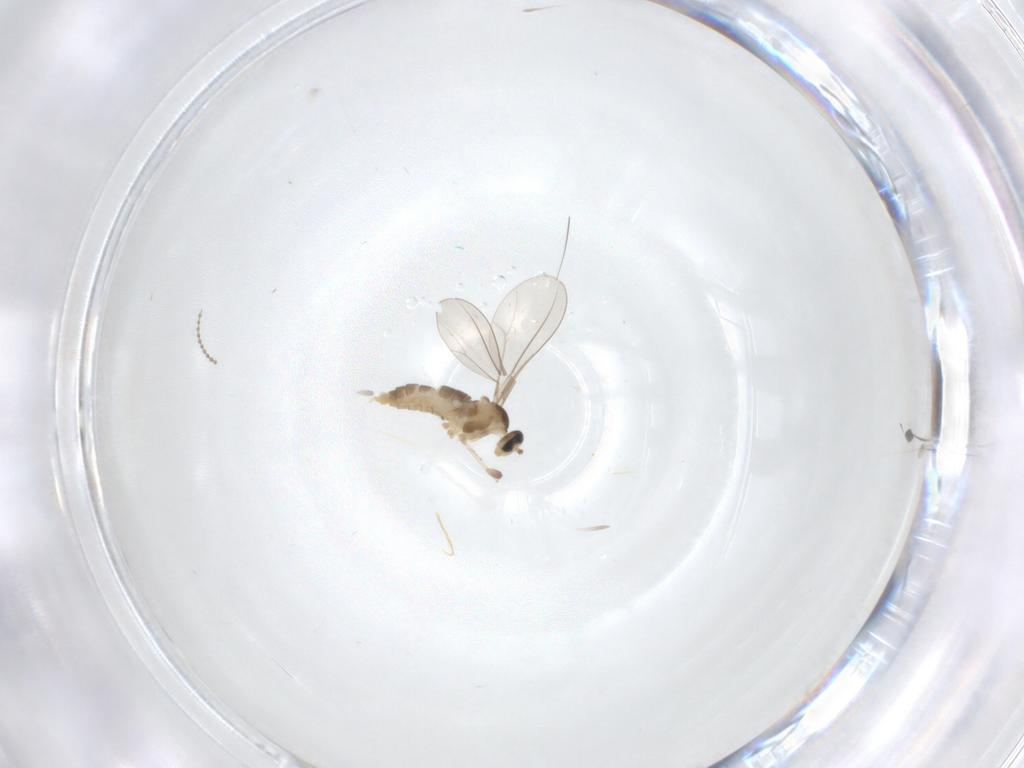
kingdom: Animalia
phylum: Arthropoda
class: Insecta
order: Diptera
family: Cecidomyiidae
